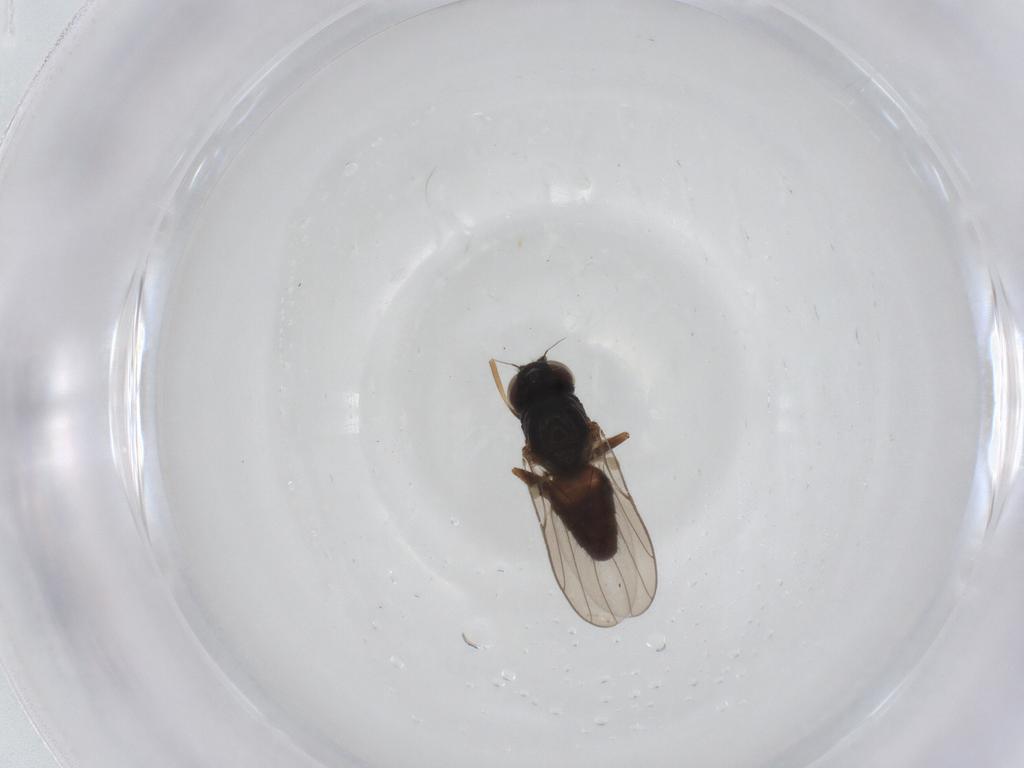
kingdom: Animalia
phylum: Arthropoda
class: Insecta
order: Diptera
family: Chloropidae
